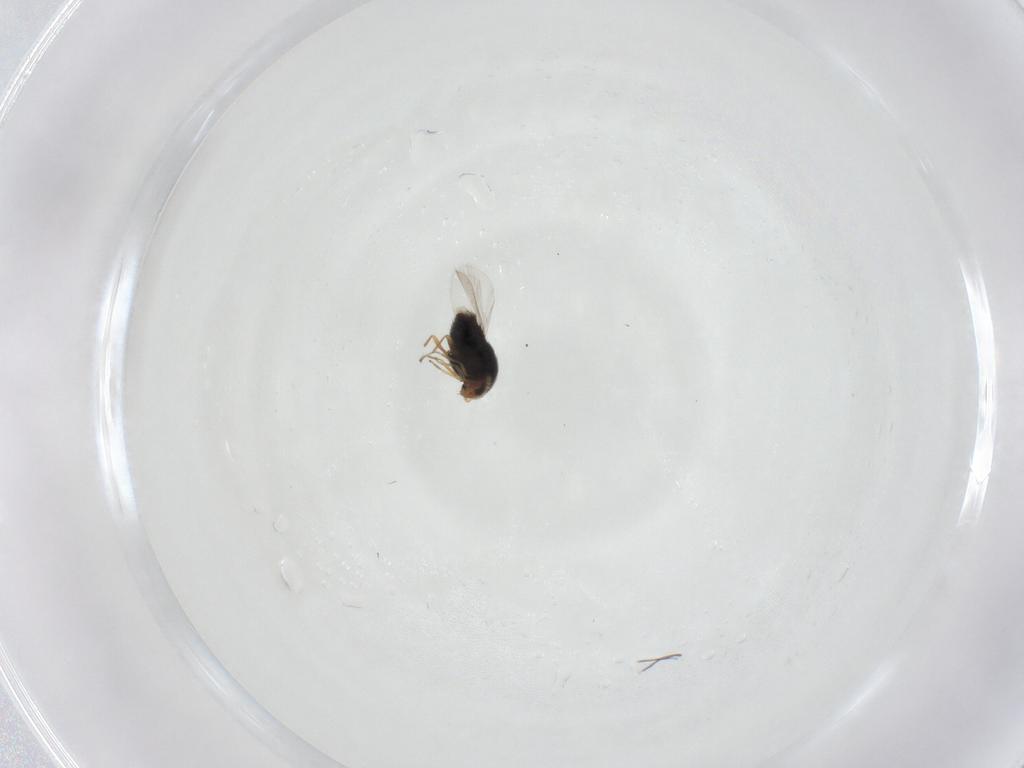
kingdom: Animalia
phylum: Arthropoda
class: Insecta
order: Coleoptera
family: Staphylinidae
